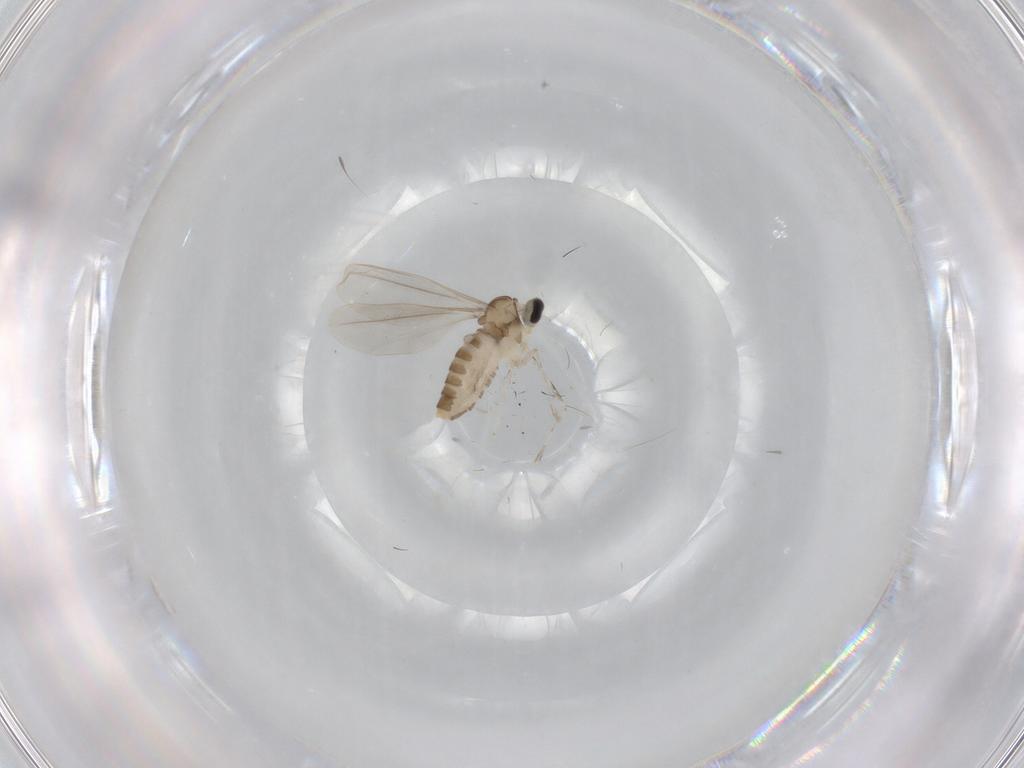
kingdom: Animalia
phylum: Arthropoda
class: Insecta
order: Diptera
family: Cecidomyiidae
